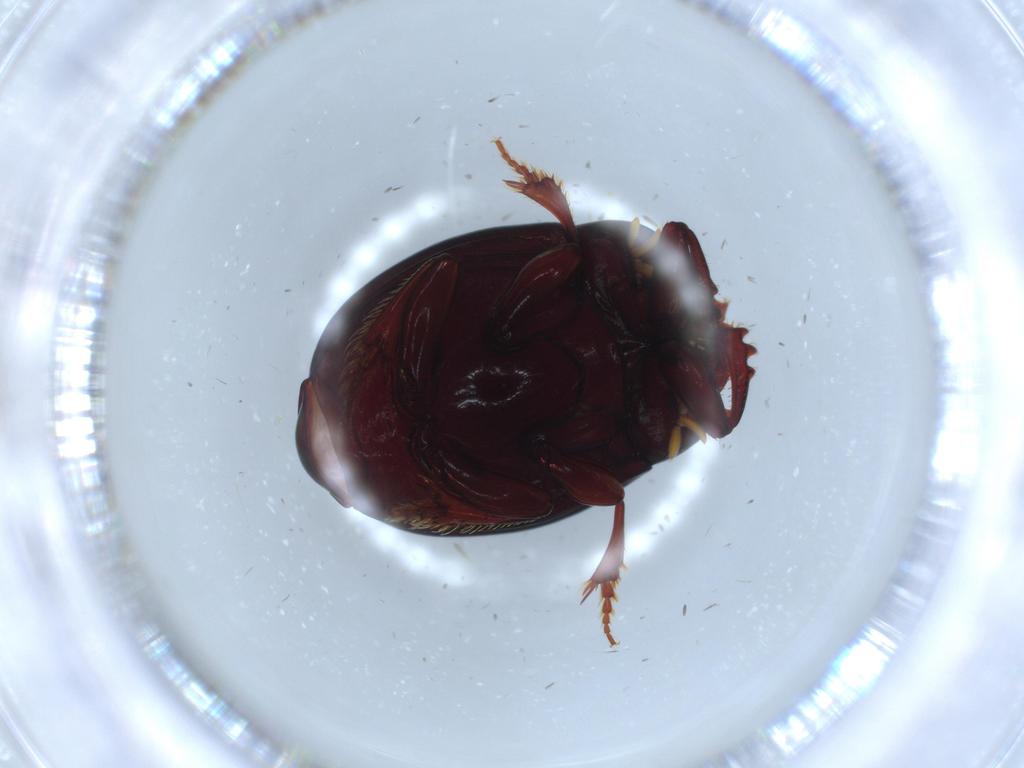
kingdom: Animalia
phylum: Arthropoda
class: Insecta
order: Coleoptera
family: Scarabaeidae
